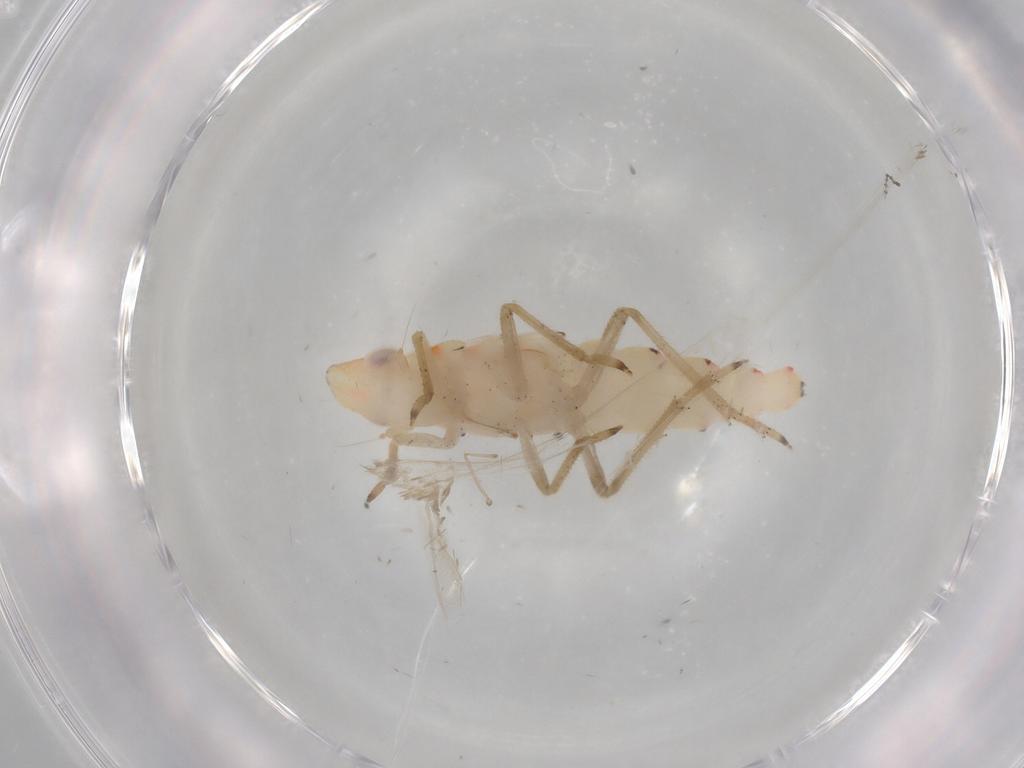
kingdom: Animalia
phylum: Arthropoda
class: Insecta
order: Hemiptera
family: Tropiduchidae
